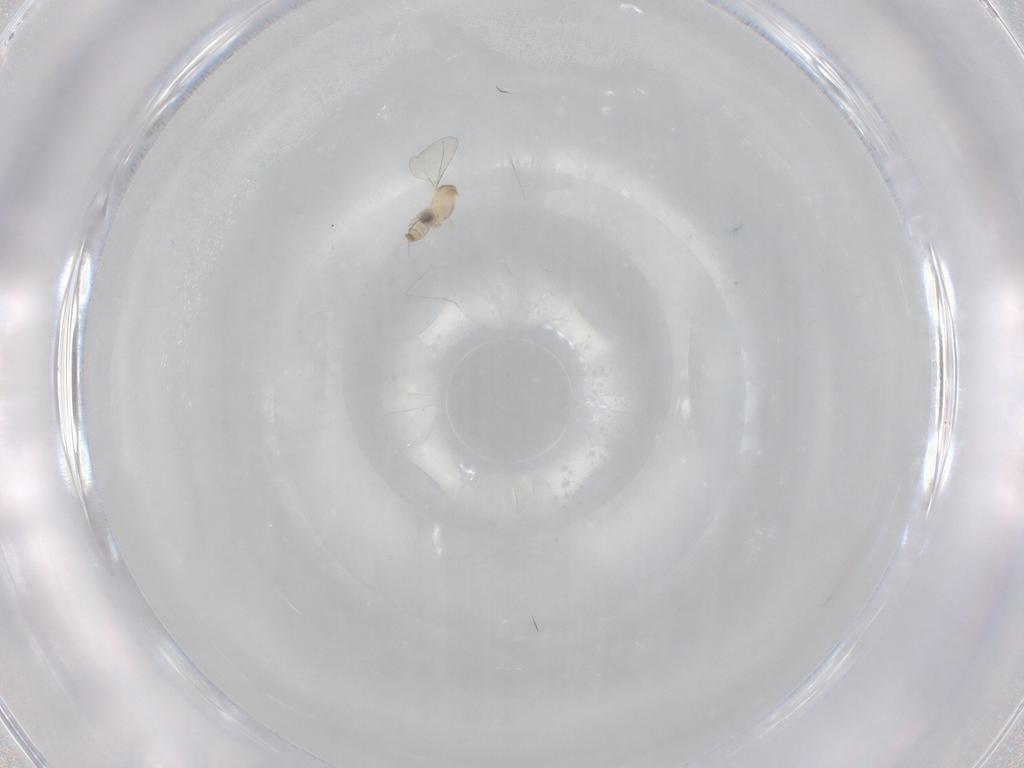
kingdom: Animalia
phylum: Arthropoda
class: Insecta
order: Diptera
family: Cecidomyiidae
